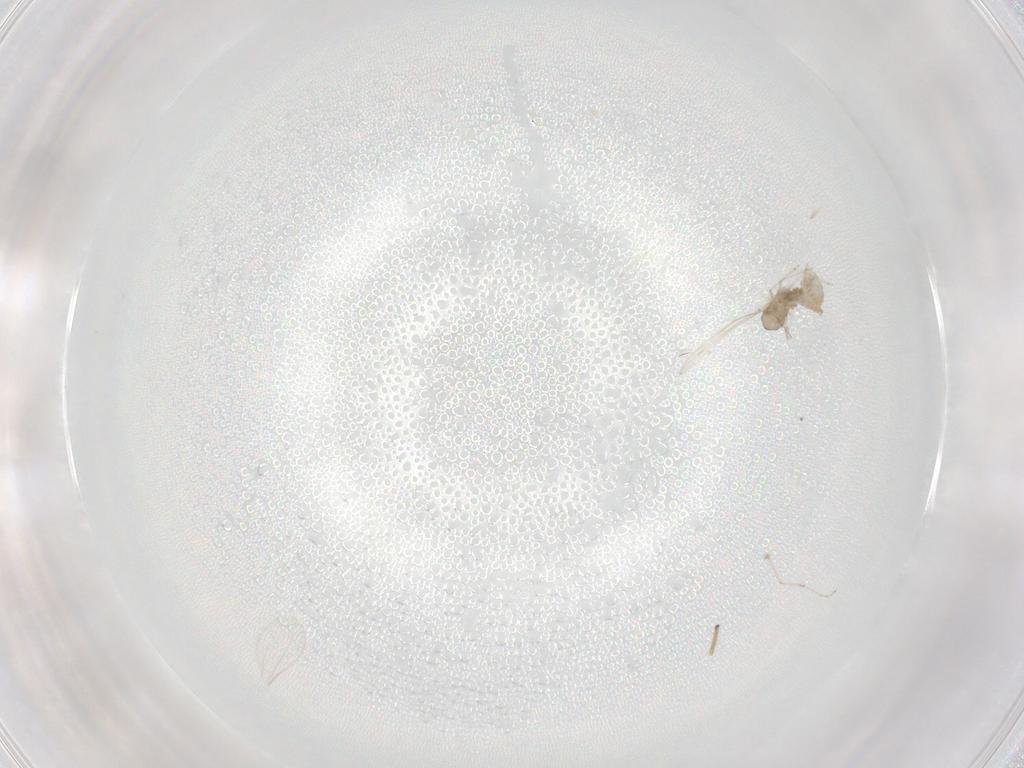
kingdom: Animalia
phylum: Arthropoda
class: Insecta
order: Diptera
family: Cecidomyiidae
